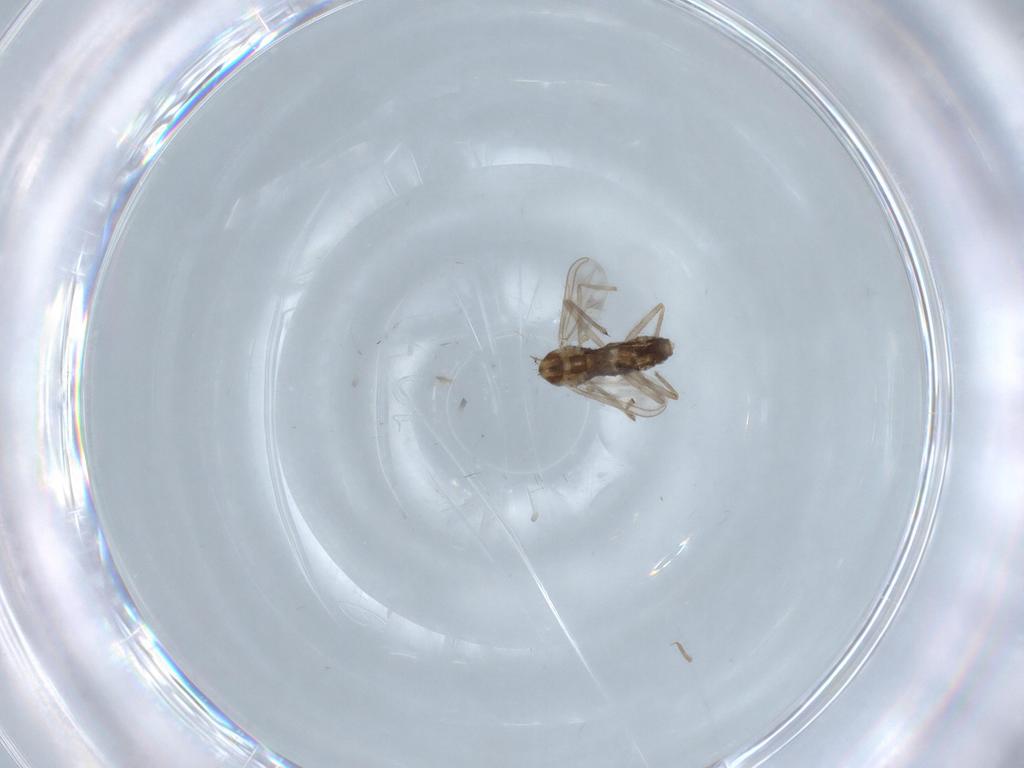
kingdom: Animalia
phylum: Arthropoda
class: Insecta
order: Diptera
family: Chironomidae
